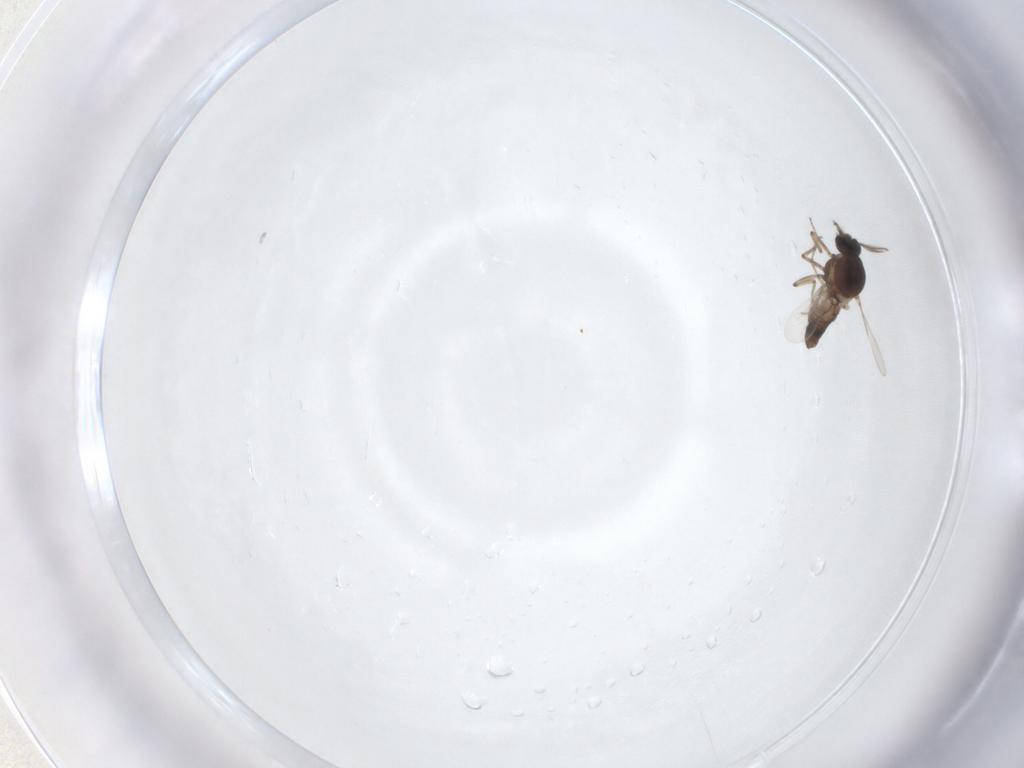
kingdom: Animalia
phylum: Arthropoda
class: Insecta
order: Diptera
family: Ceratopogonidae
